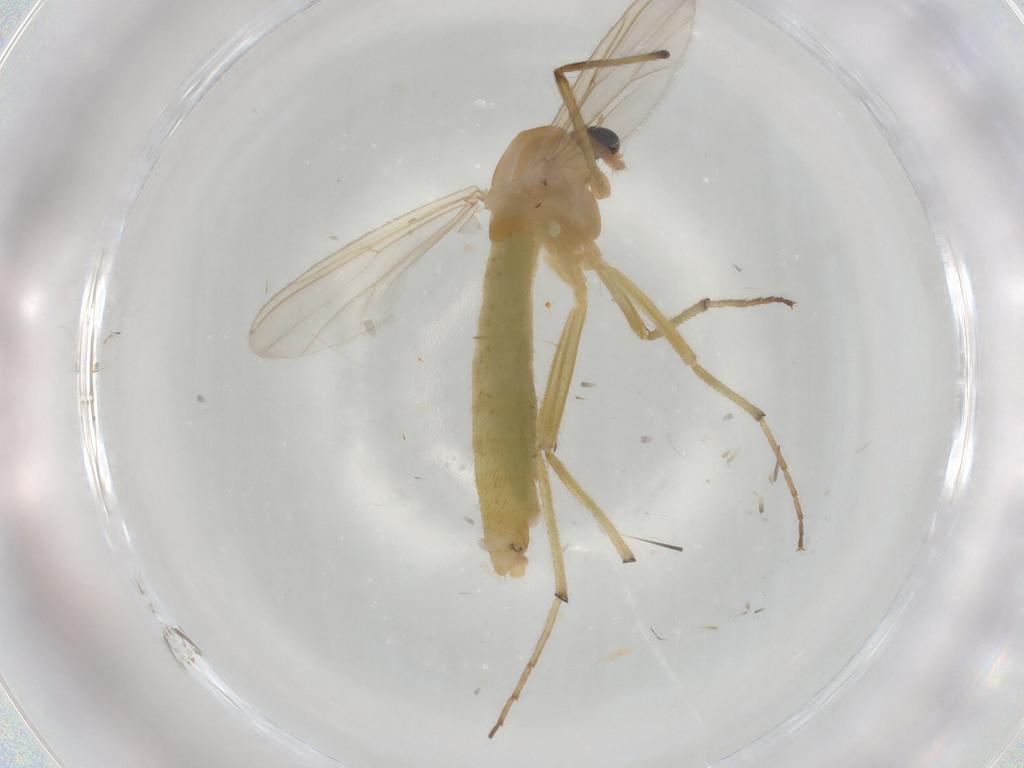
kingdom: Animalia
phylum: Arthropoda
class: Insecta
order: Diptera
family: Chironomidae
